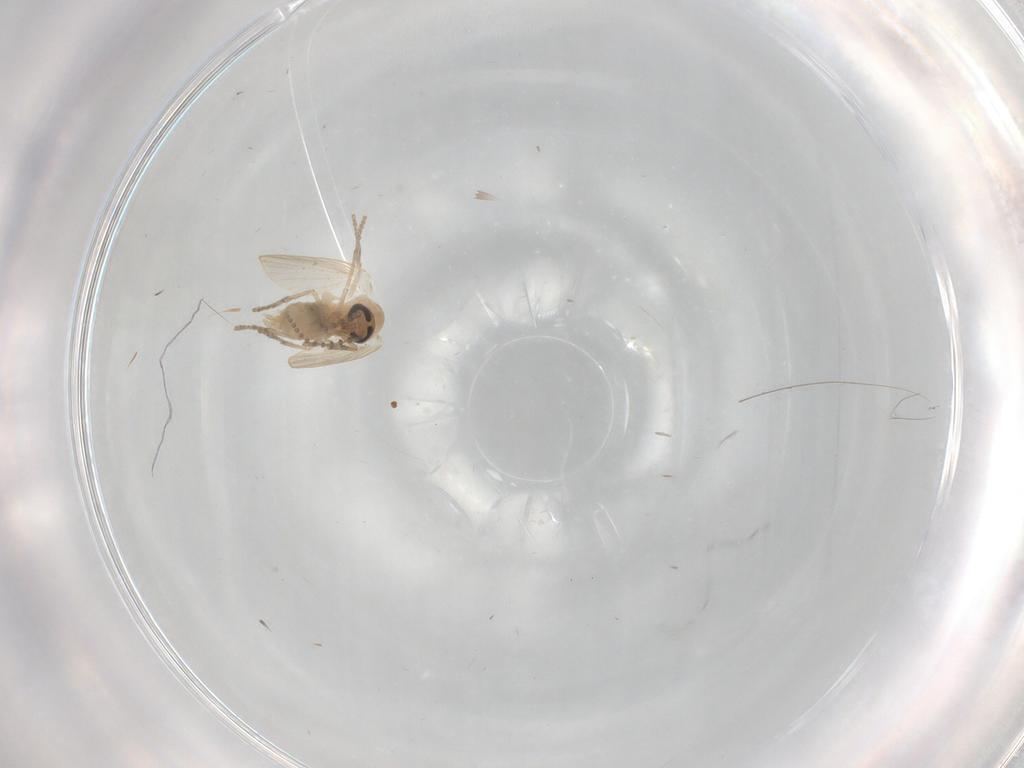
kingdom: Animalia
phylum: Arthropoda
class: Insecta
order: Diptera
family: Psychodidae
